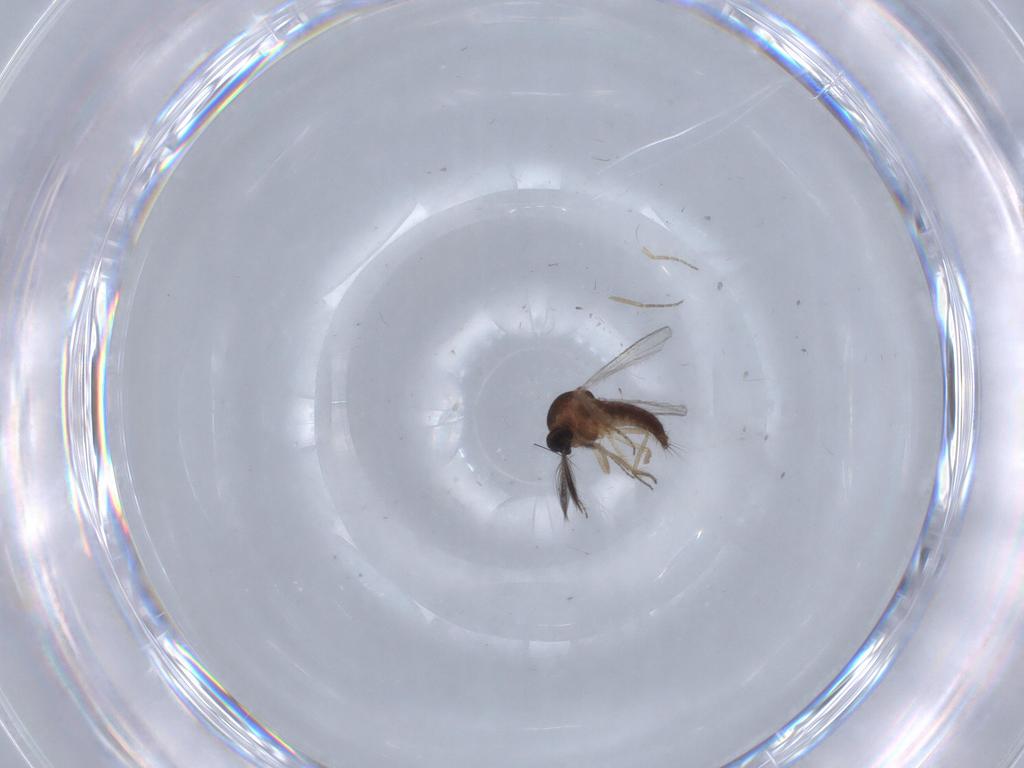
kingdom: Animalia
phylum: Arthropoda
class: Insecta
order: Diptera
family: Ceratopogonidae
